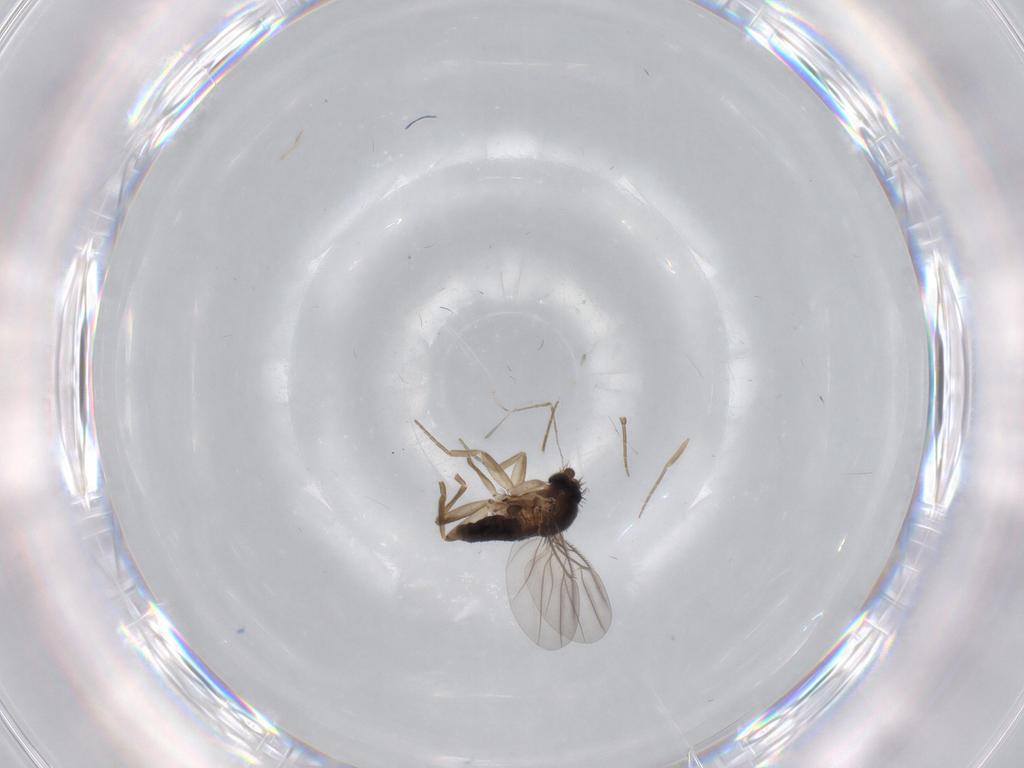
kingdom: Animalia
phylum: Arthropoda
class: Insecta
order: Diptera
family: Phoridae
